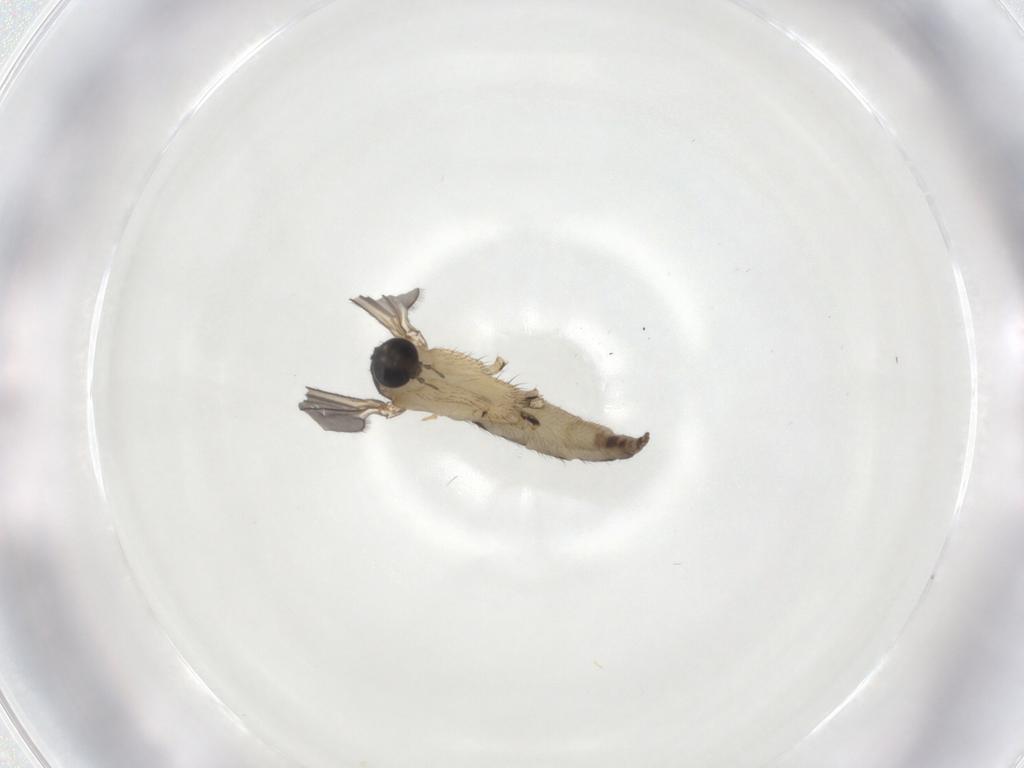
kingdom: Animalia
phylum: Arthropoda
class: Insecta
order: Diptera
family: Sciaridae
